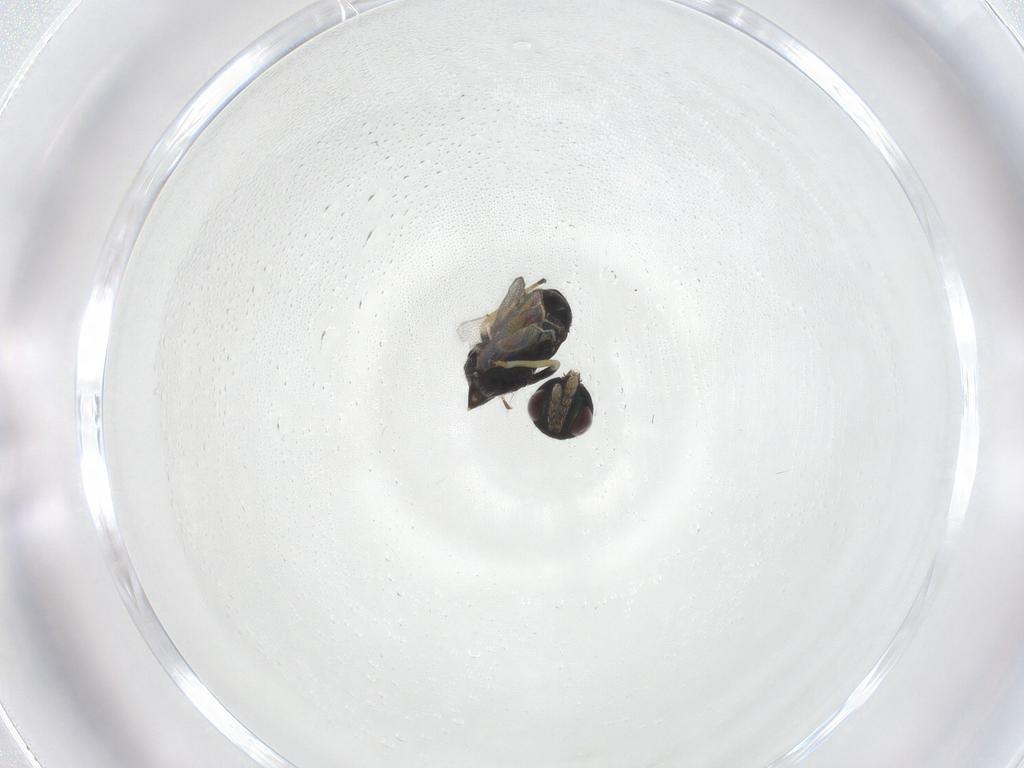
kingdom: Animalia
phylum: Arthropoda
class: Insecta
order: Hymenoptera
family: Eulophidae
